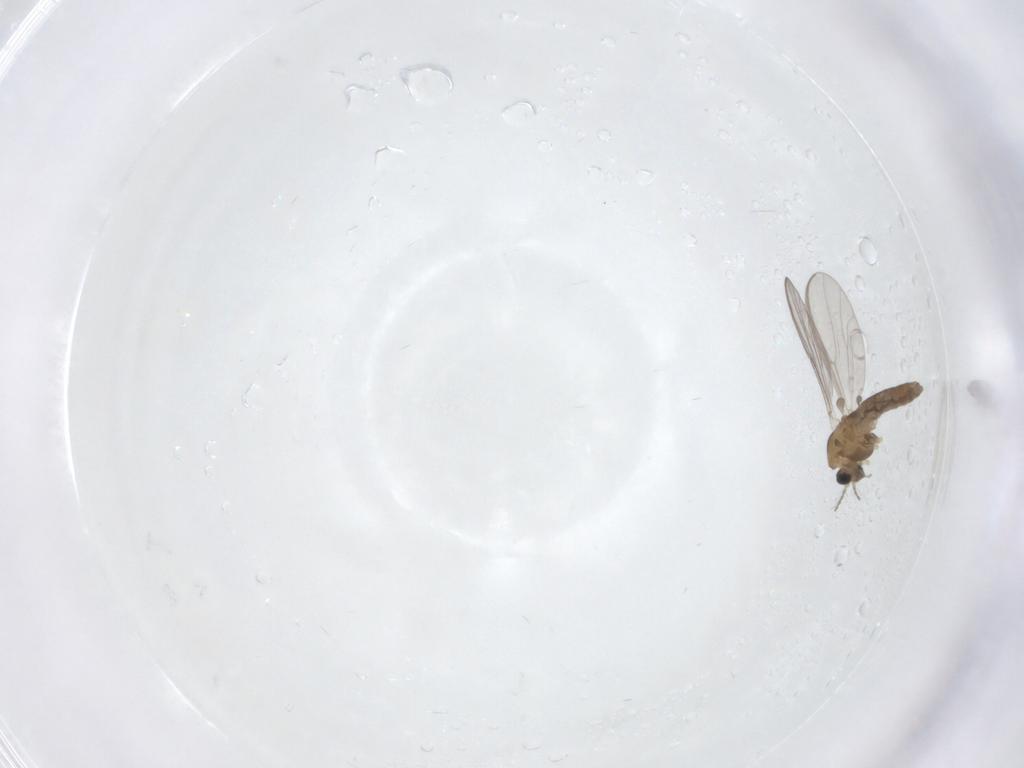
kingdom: Animalia
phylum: Arthropoda
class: Insecta
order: Diptera
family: Chironomidae
